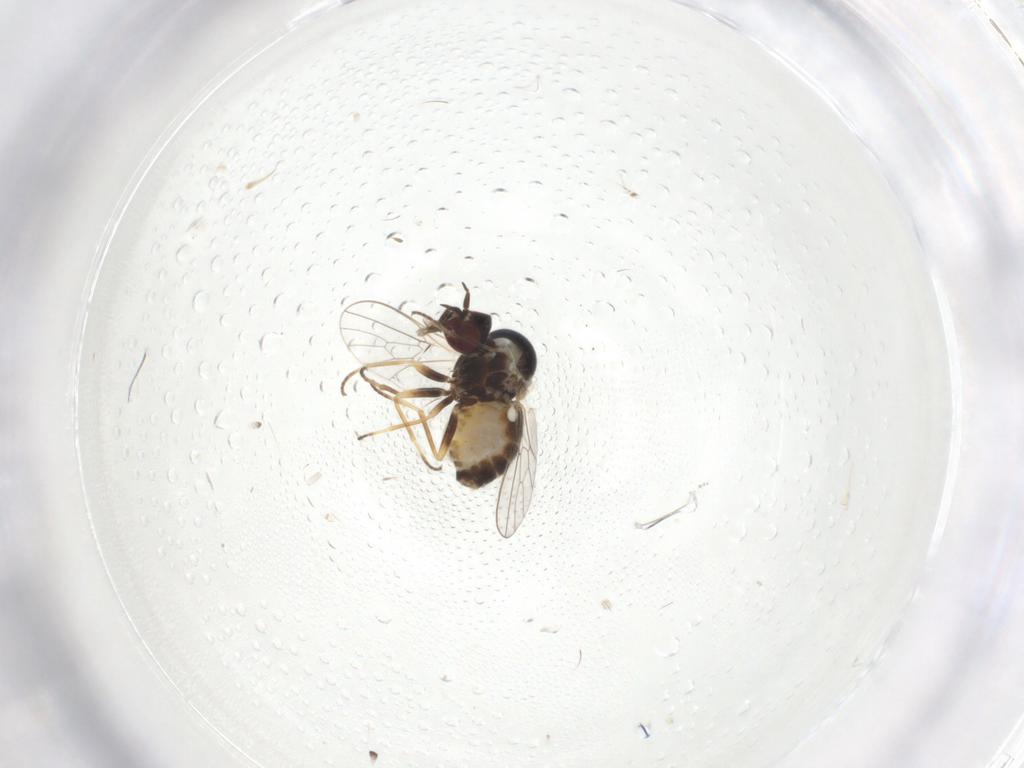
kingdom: Animalia
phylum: Arthropoda
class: Insecta
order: Diptera
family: Bombyliidae
